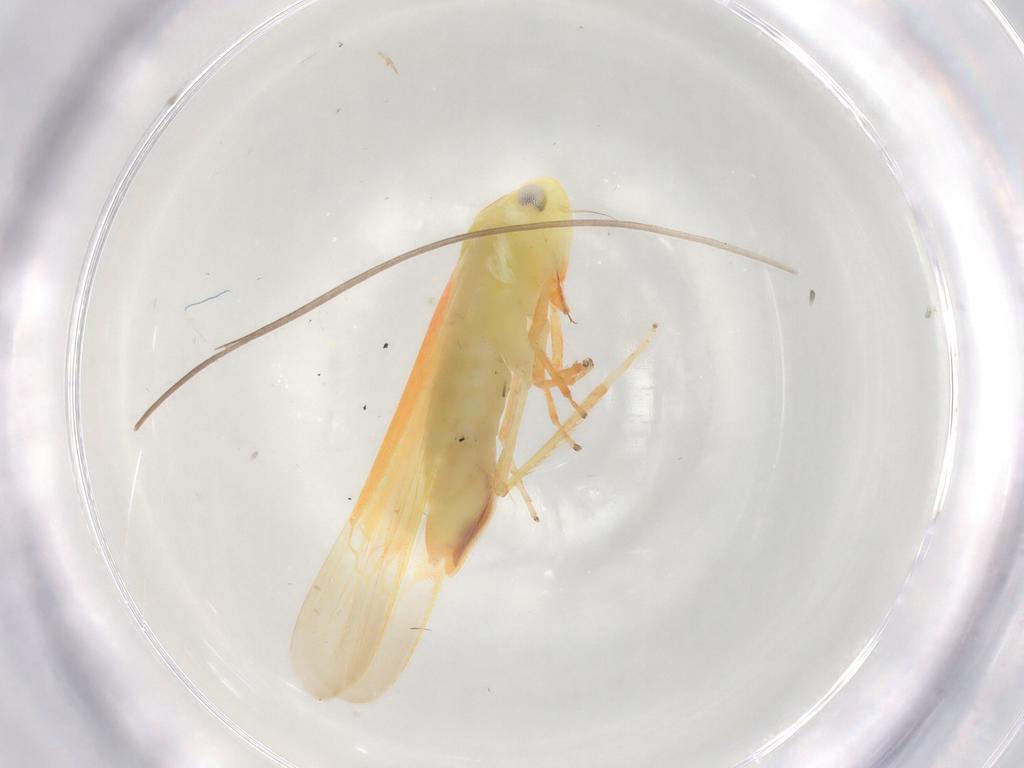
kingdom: Animalia
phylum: Arthropoda
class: Insecta
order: Hemiptera
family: Cicadellidae
